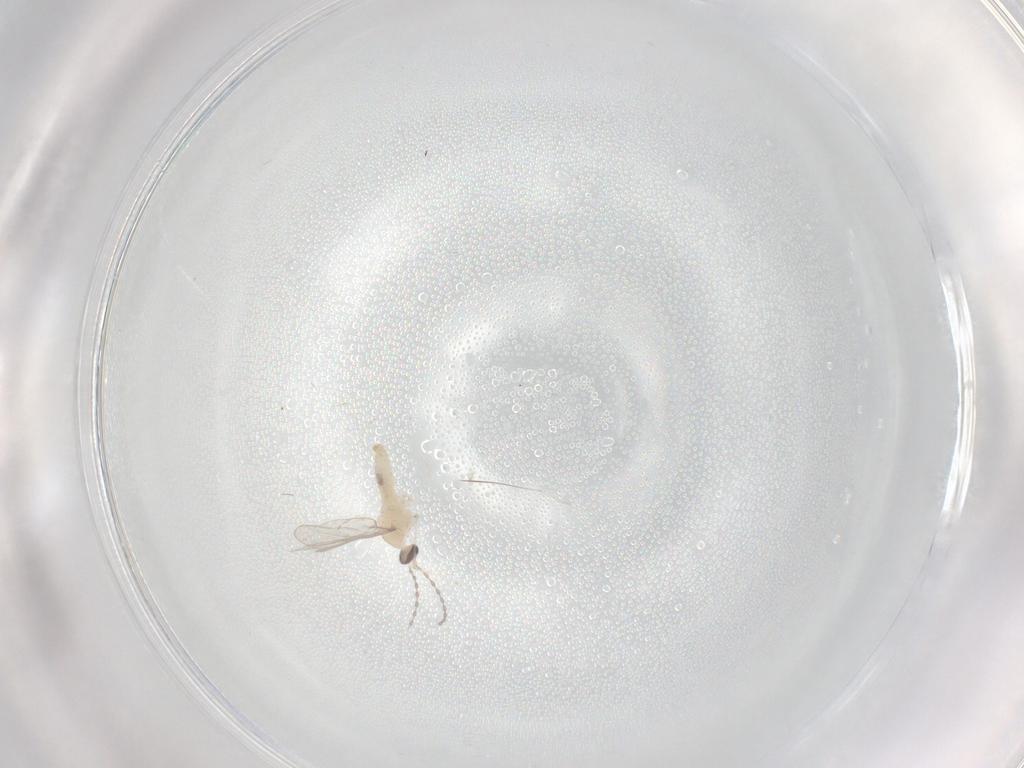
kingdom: Animalia
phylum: Arthropoda
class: Insecta
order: Diptera
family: Cecidomyiidae
